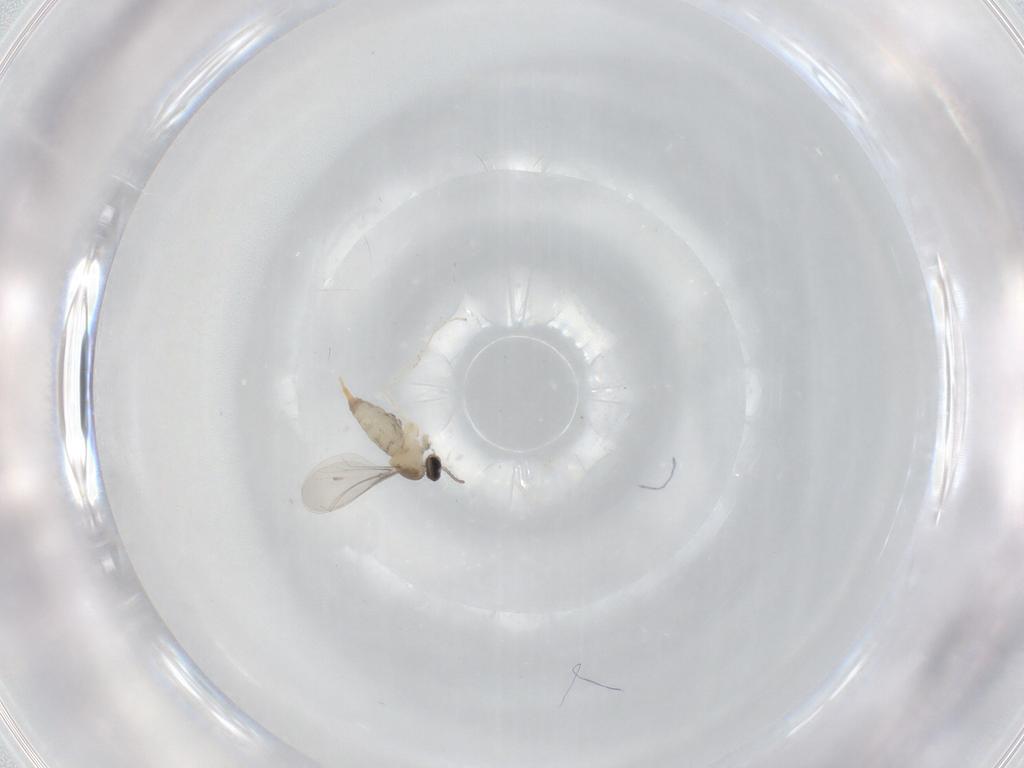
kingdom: Animalia
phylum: Arthropoda
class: Insecta
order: Diptera
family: Cecidomyiidae
